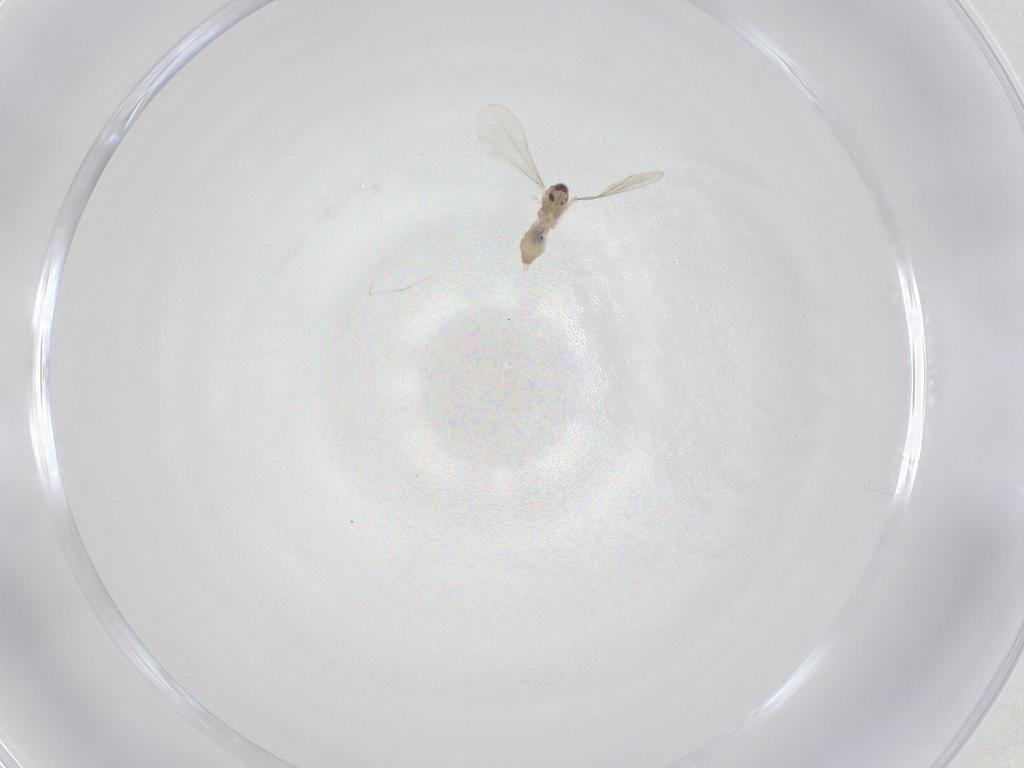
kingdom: Animalia
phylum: Arthropoda
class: Insecta
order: Diptera
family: Cecidomyiidae
